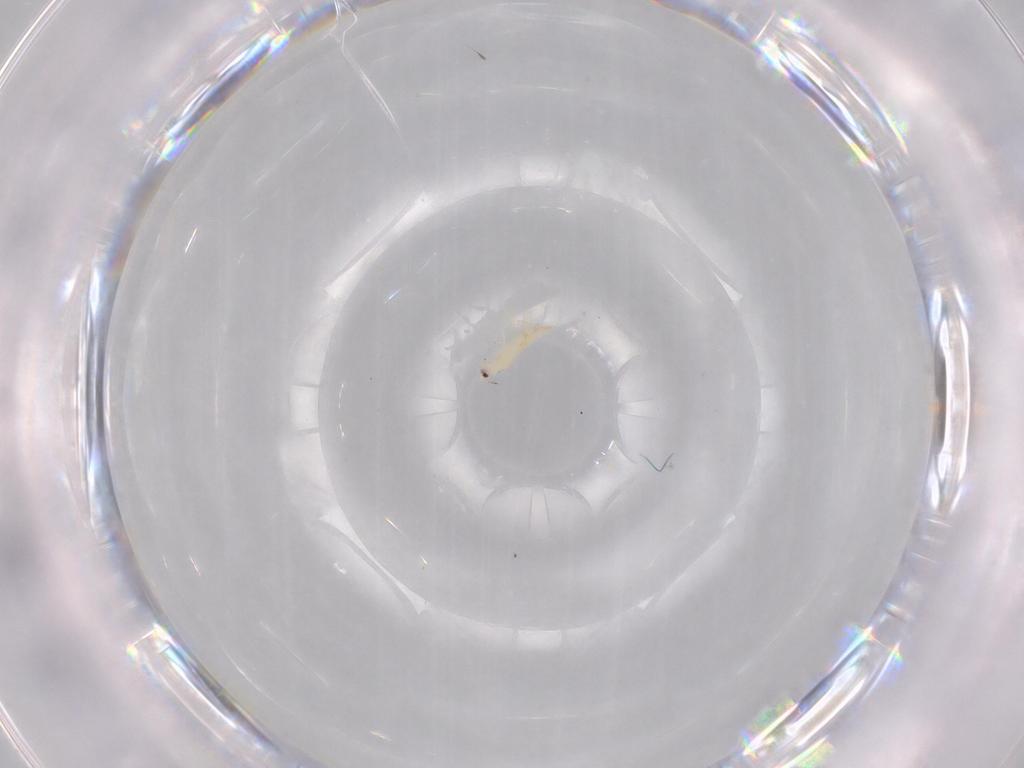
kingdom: Animalia
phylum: Arthropoda
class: Insecta
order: Thysanoptera
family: Thripidae
